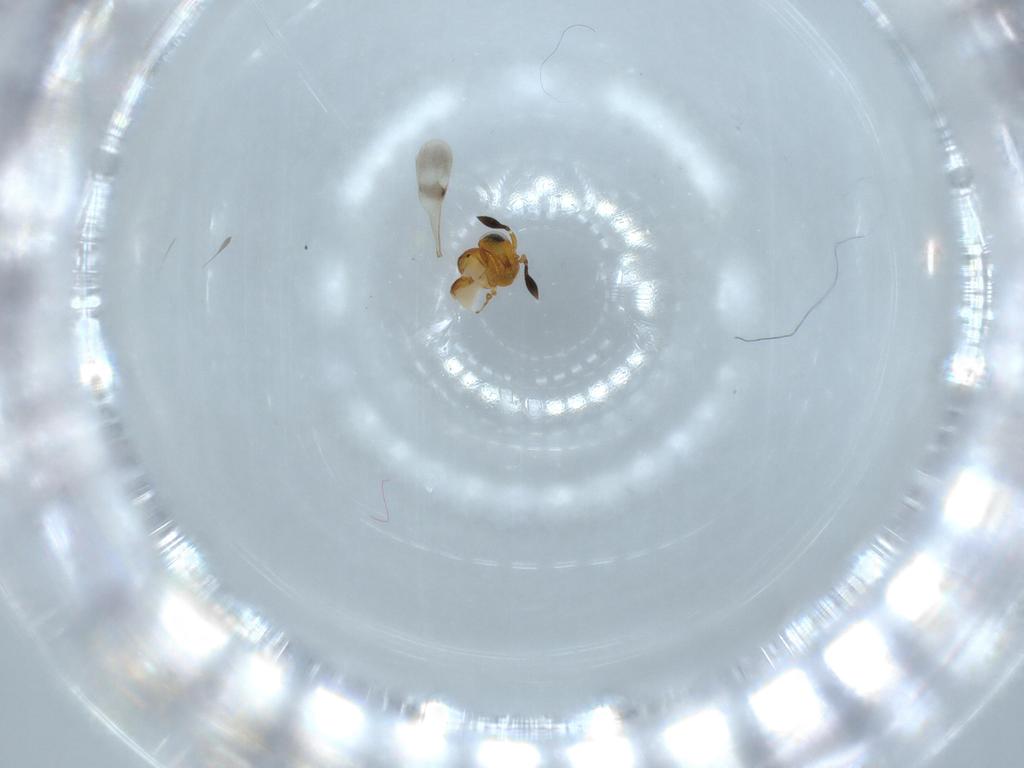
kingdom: Animalia
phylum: Arthropoda
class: Insecta
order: Hymenoptera
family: Scelionidae
